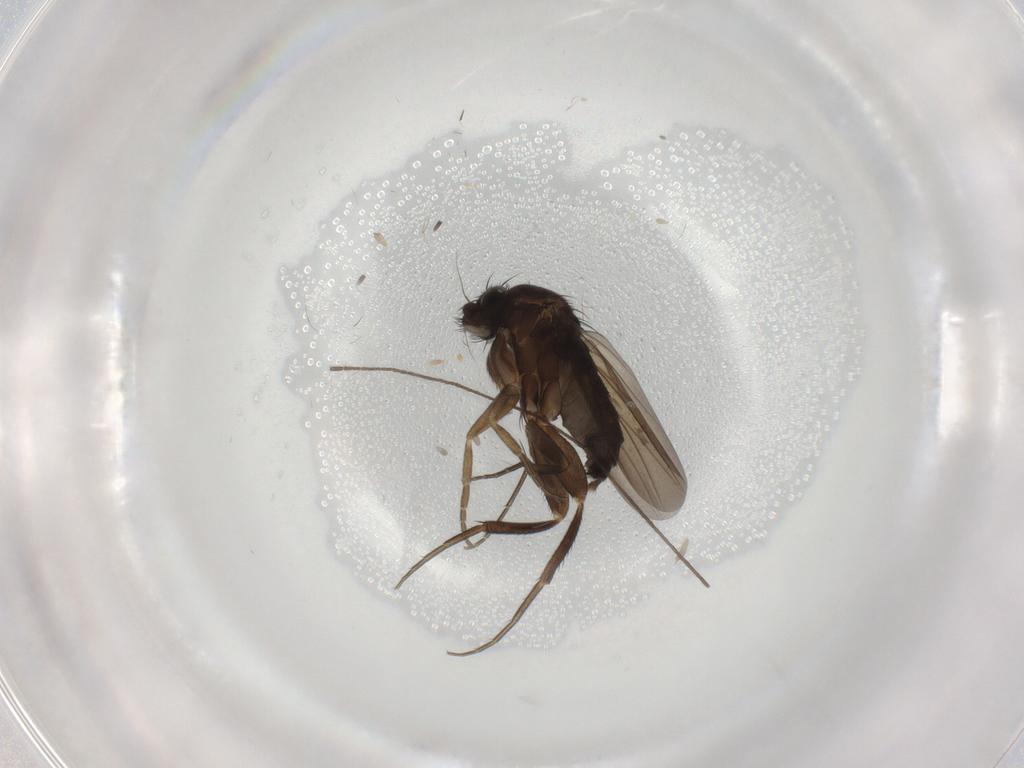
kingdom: Animalia
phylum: Arthropoda
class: Insecta
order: Diptera
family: Phoridae
